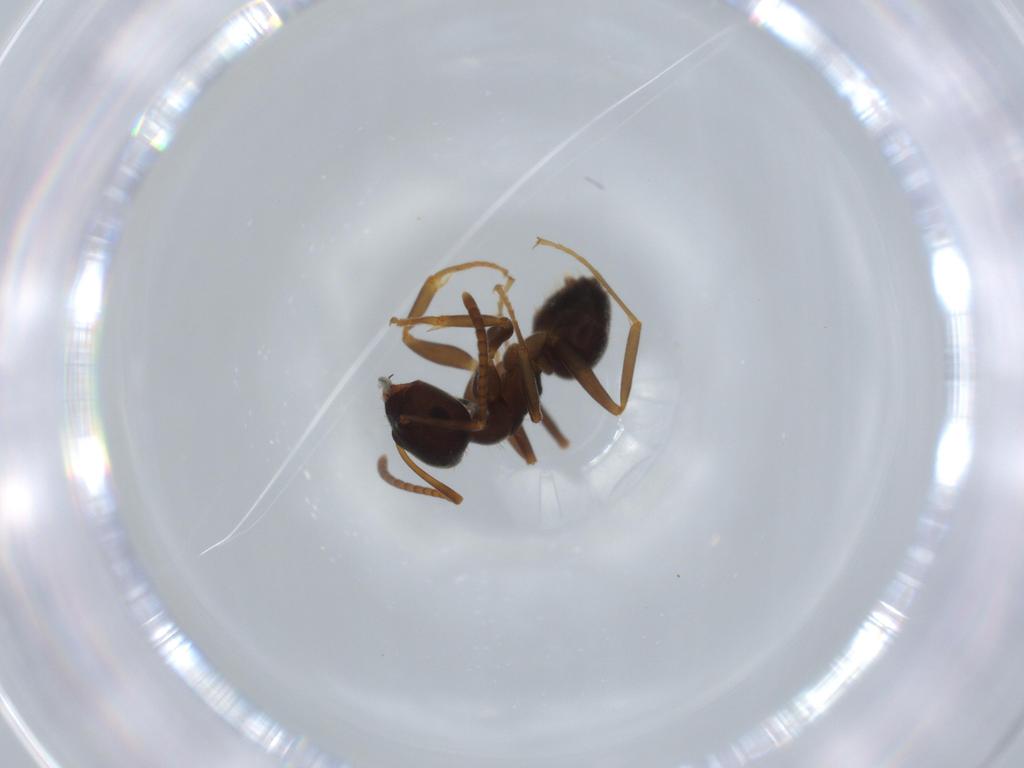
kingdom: Animalia
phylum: Arthropoda
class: Insecta
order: Hymenoptera
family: Formicidae
